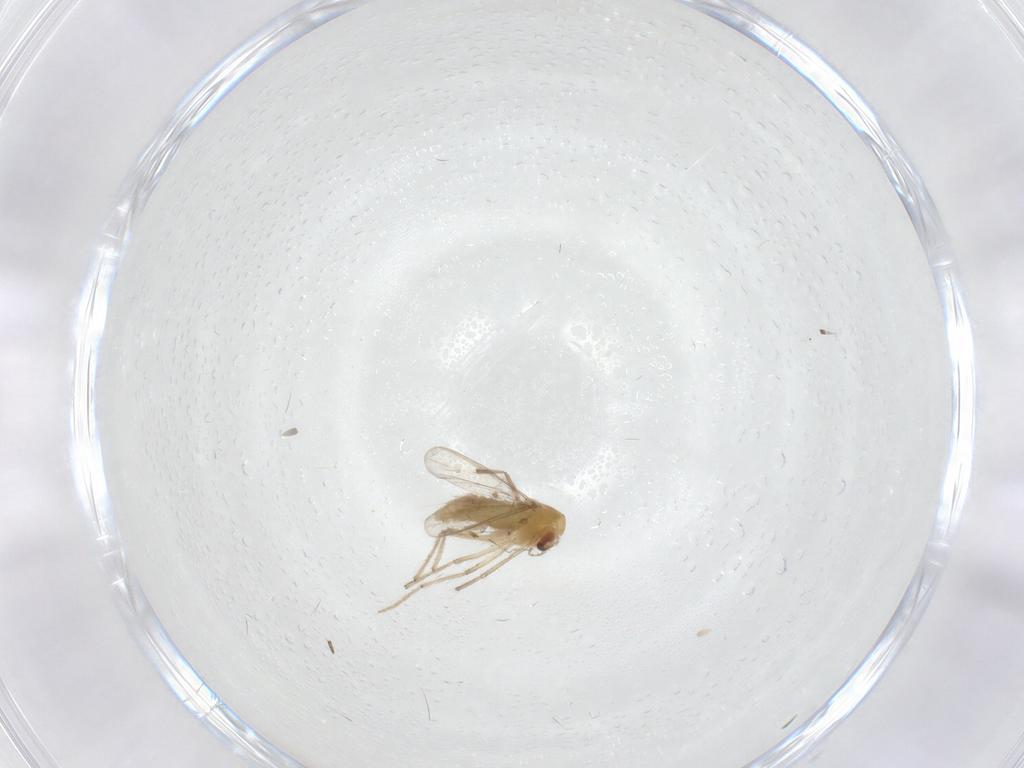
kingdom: Animalia
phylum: Arthropoda
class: Insecta
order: Diptera
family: Chironomidae
